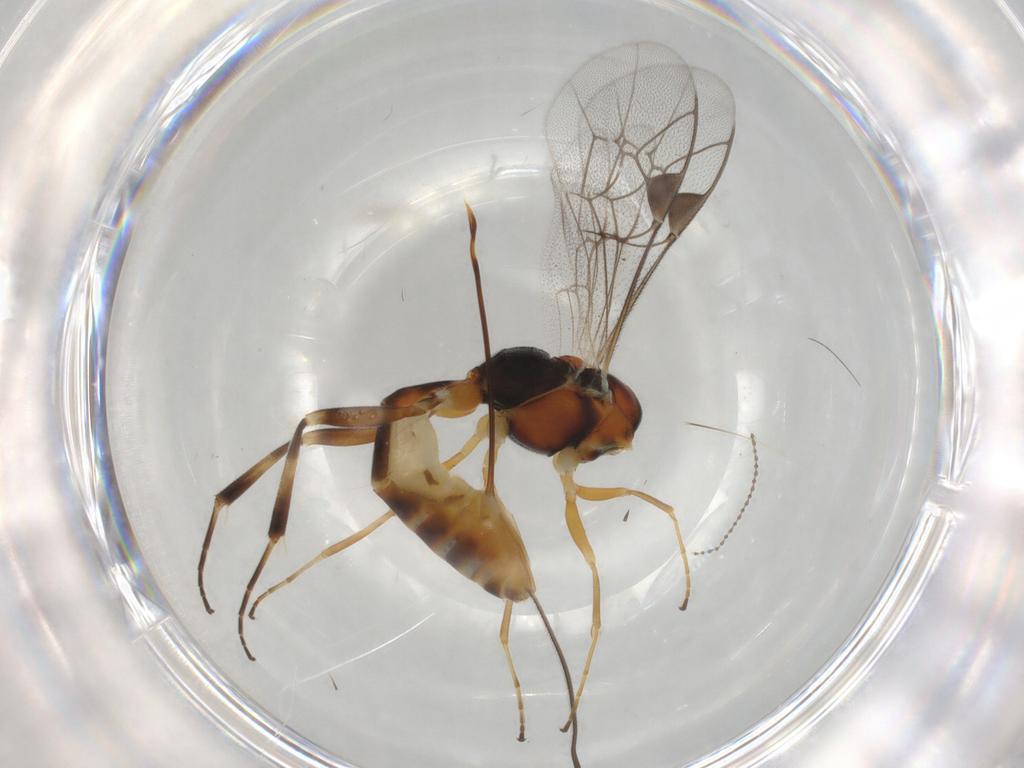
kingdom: Animalia
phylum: Arthropoda
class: Insecta
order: Hymenoptera
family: Ichneumonidae
